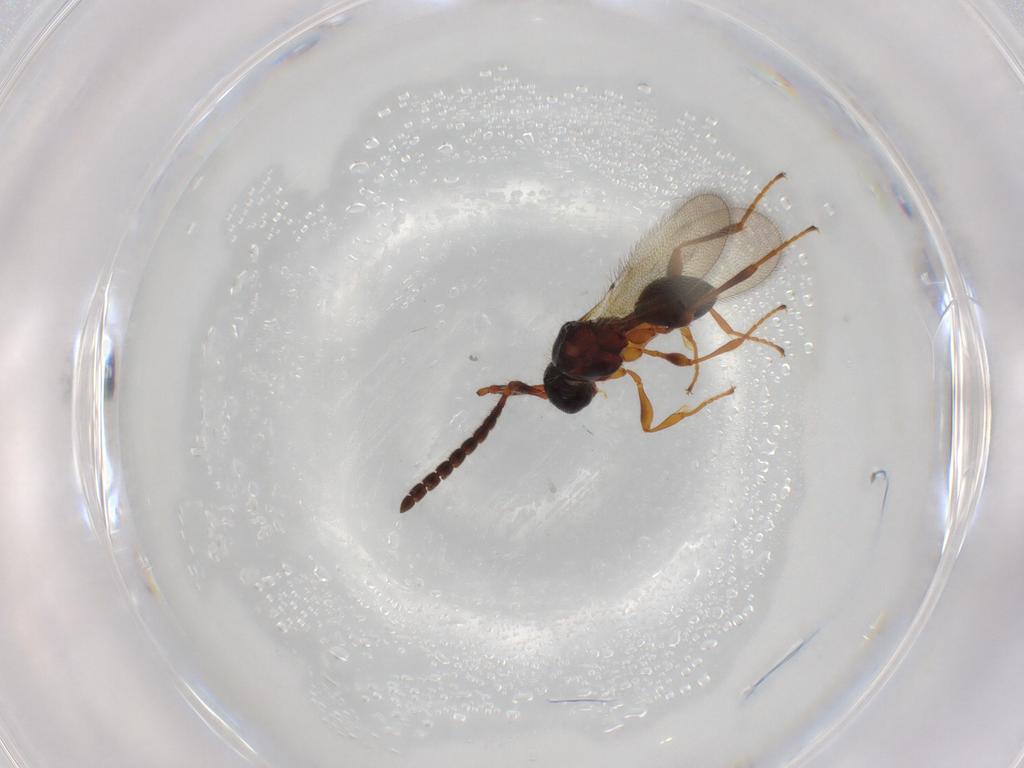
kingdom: Animalia
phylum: Arthropoda
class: Insecta
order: Hymenoptera
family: Diapriidae
